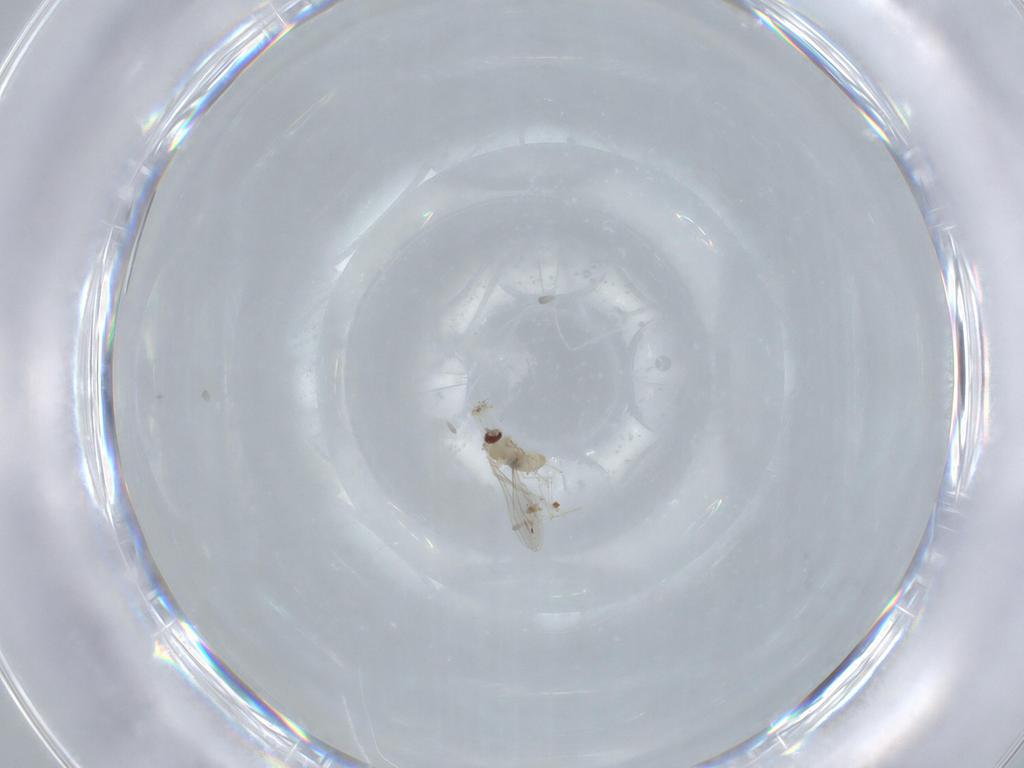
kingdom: Animalia
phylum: Arthropoda
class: Insecta
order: Diptera
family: Cecidomyiidae
